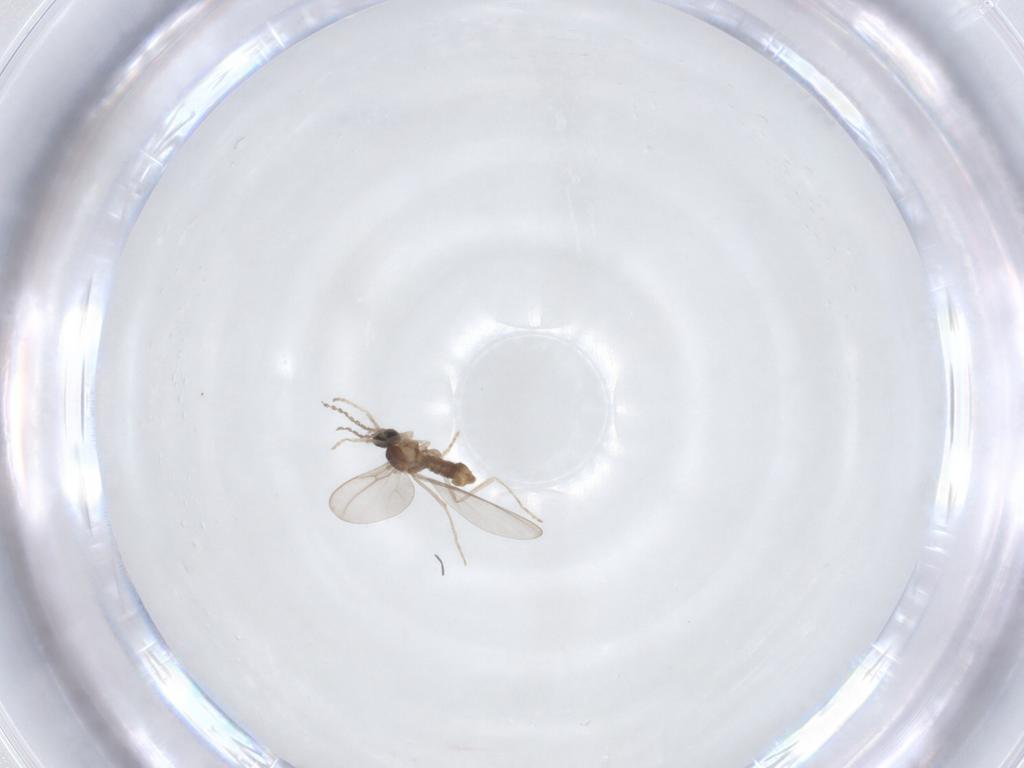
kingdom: Animalia
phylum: Arthropoda
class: Insecta
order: Diptera
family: Cecidomyiidae
